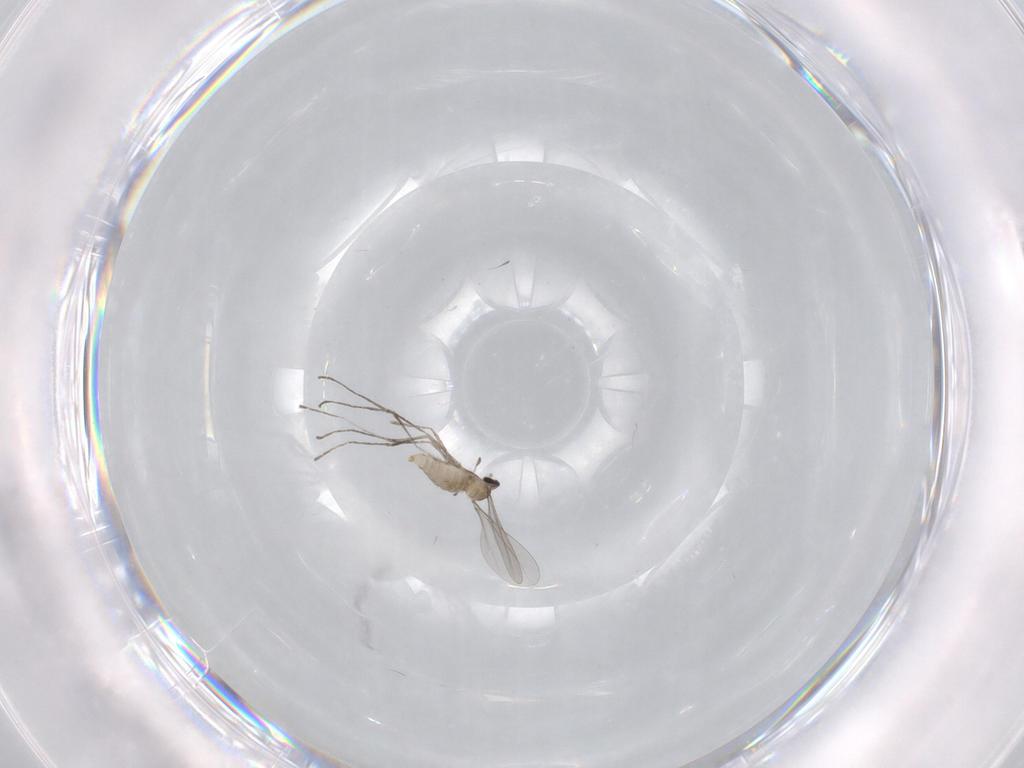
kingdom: Animalia
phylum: Arthropoda
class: Insecta
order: Diptera
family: Cecidomyiidae
